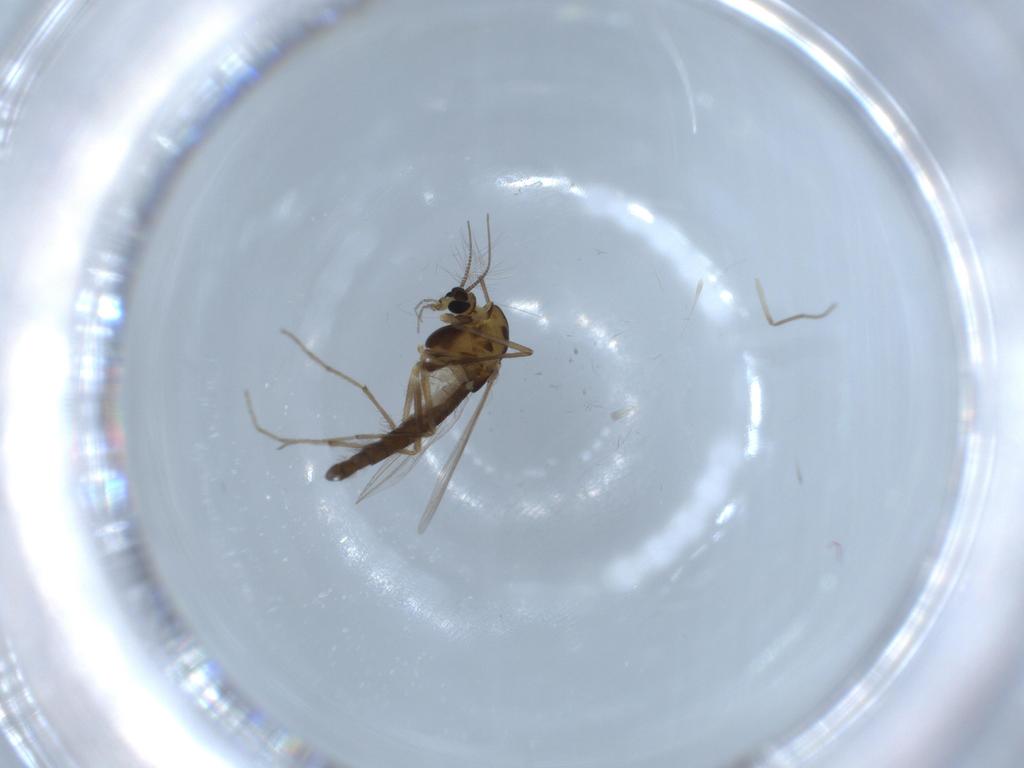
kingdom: Animalia
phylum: Arthropoda
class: Insecta
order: Diptera
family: Chironomidae
